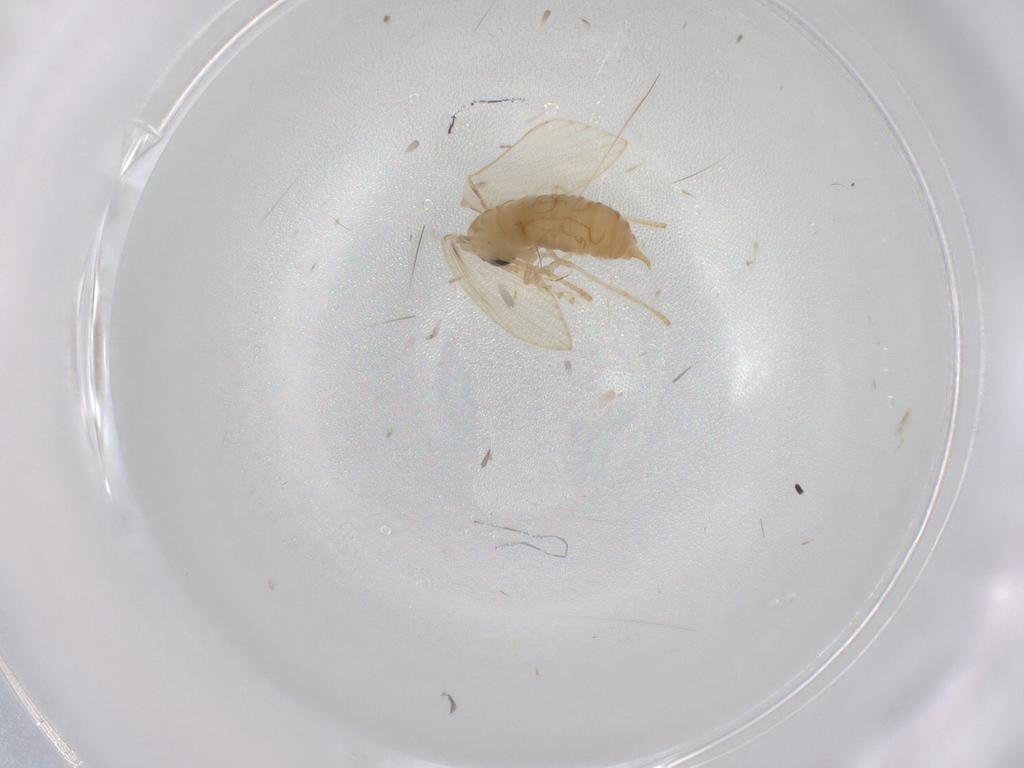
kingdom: Animalia
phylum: Arthropoda
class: Insecta
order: Diptera
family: Psychodidae
